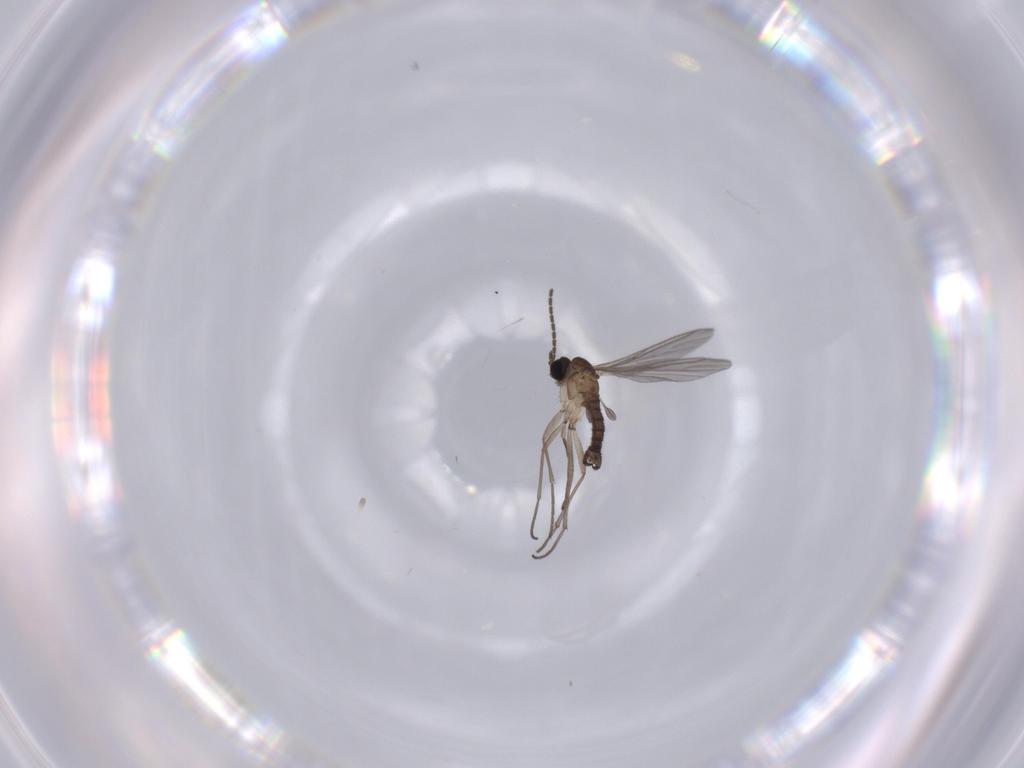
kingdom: Animalia
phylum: Arthropoda
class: Insecta
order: Diptera
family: Sciaridae
